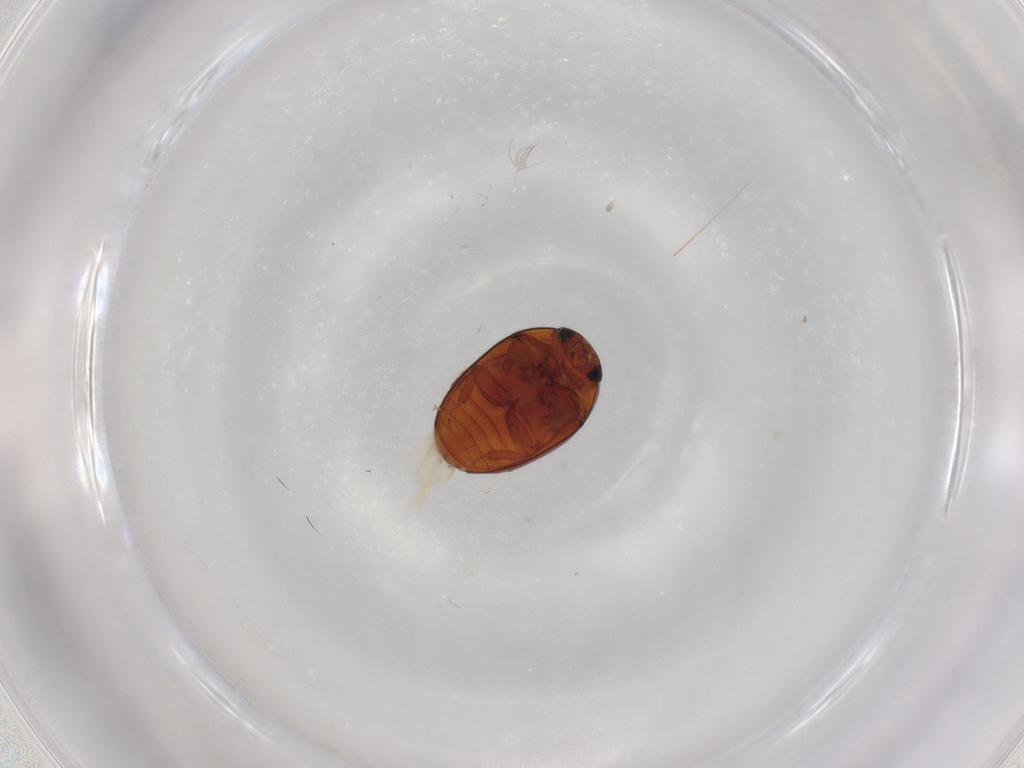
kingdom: Animalia
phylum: Arthropoda
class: Insecta
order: Coleoptera
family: Phalacridae
